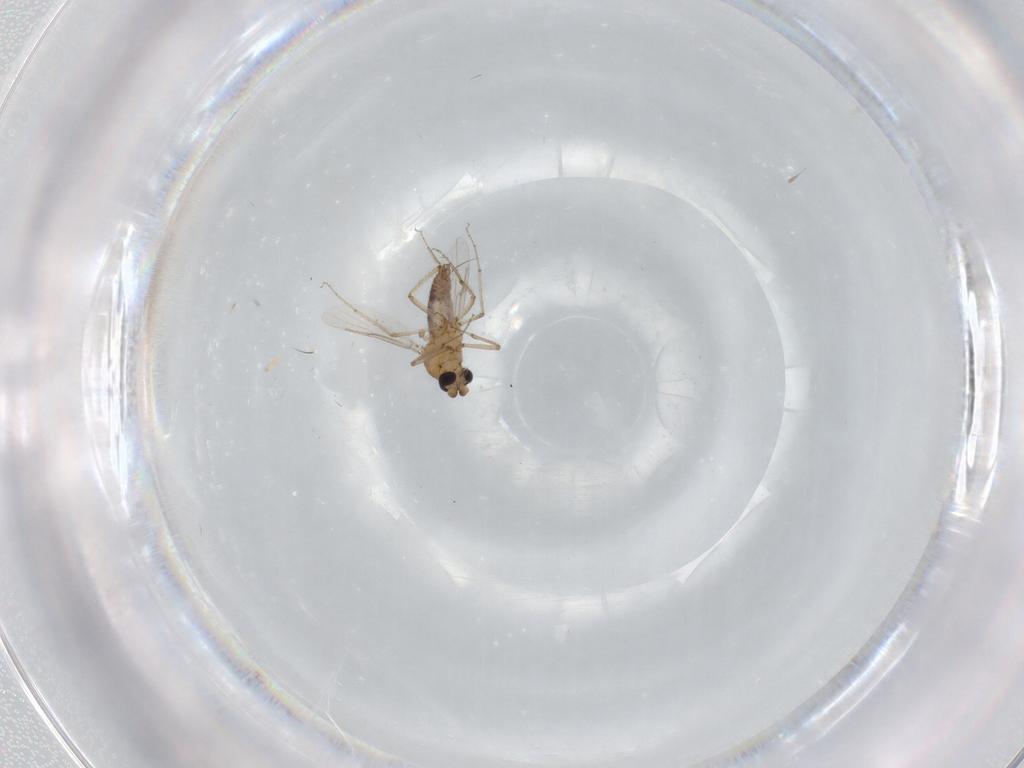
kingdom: Animalia
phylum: Arthropoda
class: Insecta
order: Diptera
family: Ceratopogonidae
